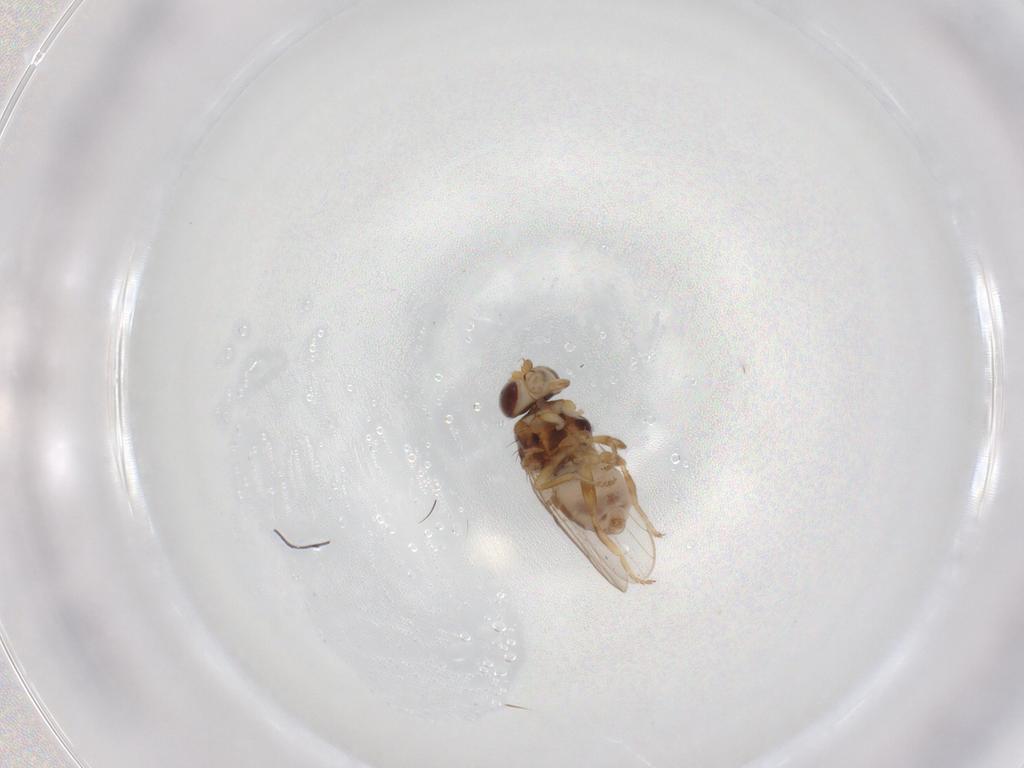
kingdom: Animalia
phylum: Arthropoda
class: Insecta
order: Diptera
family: Chloropidae
